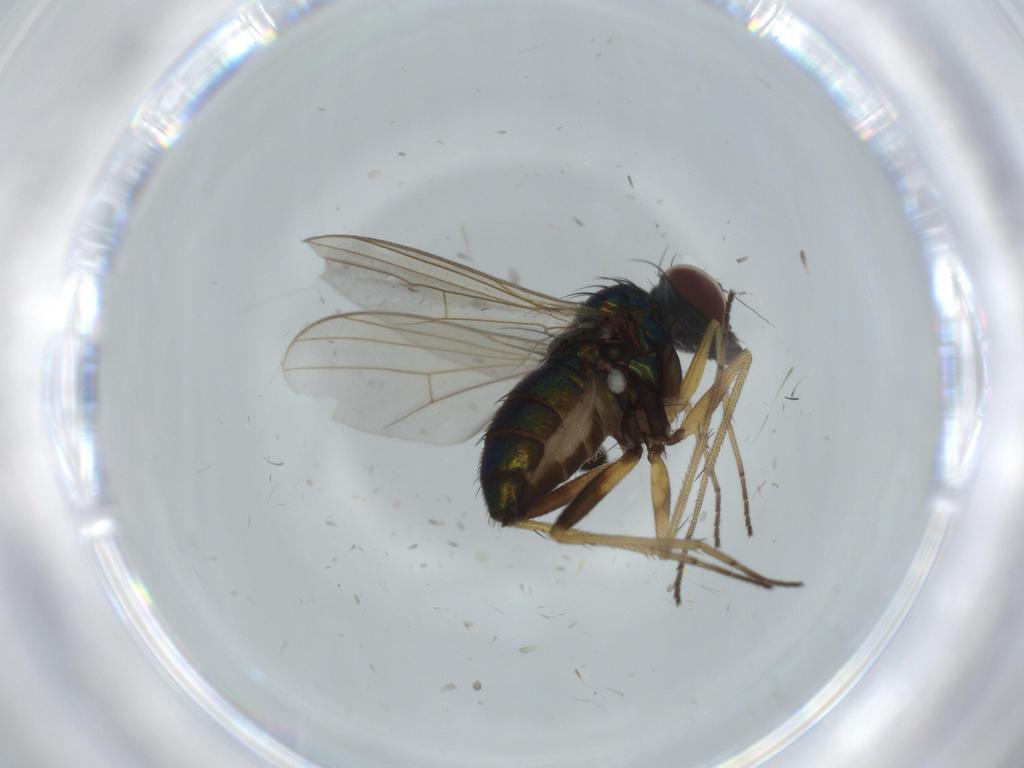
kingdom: Animalia
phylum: Arthropoda
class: Insecta
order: Diptera
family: Dolichopodidae
